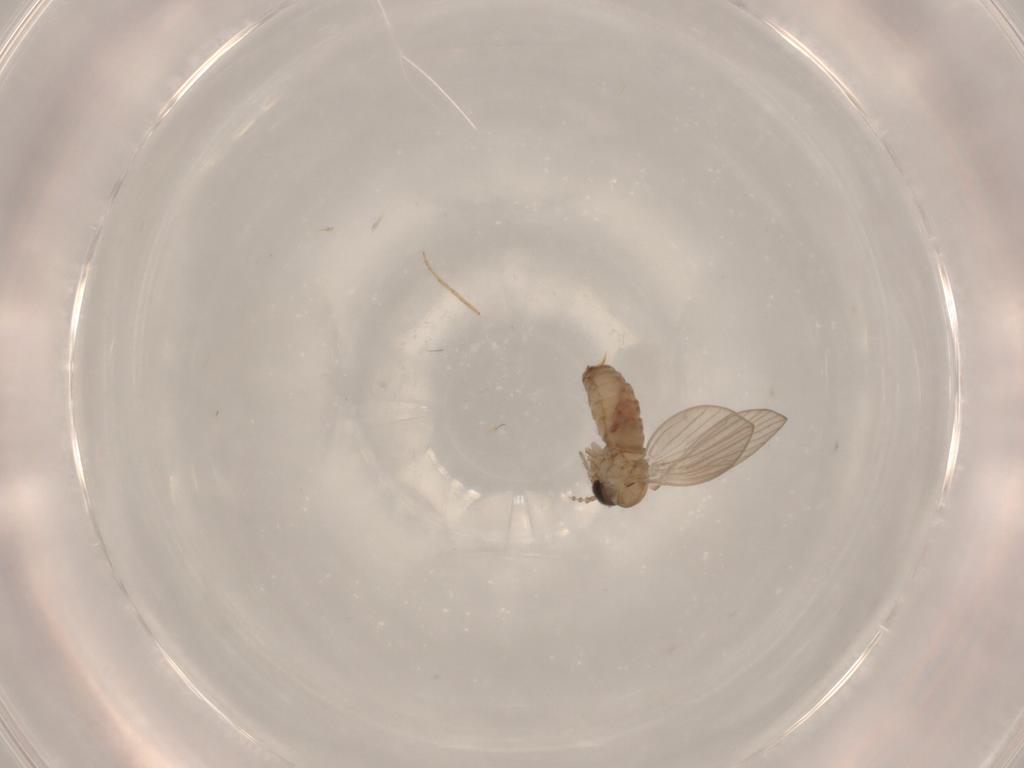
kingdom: Animalia
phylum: Arthropoda
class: Insecta
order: Diptera
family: Psychodidae
